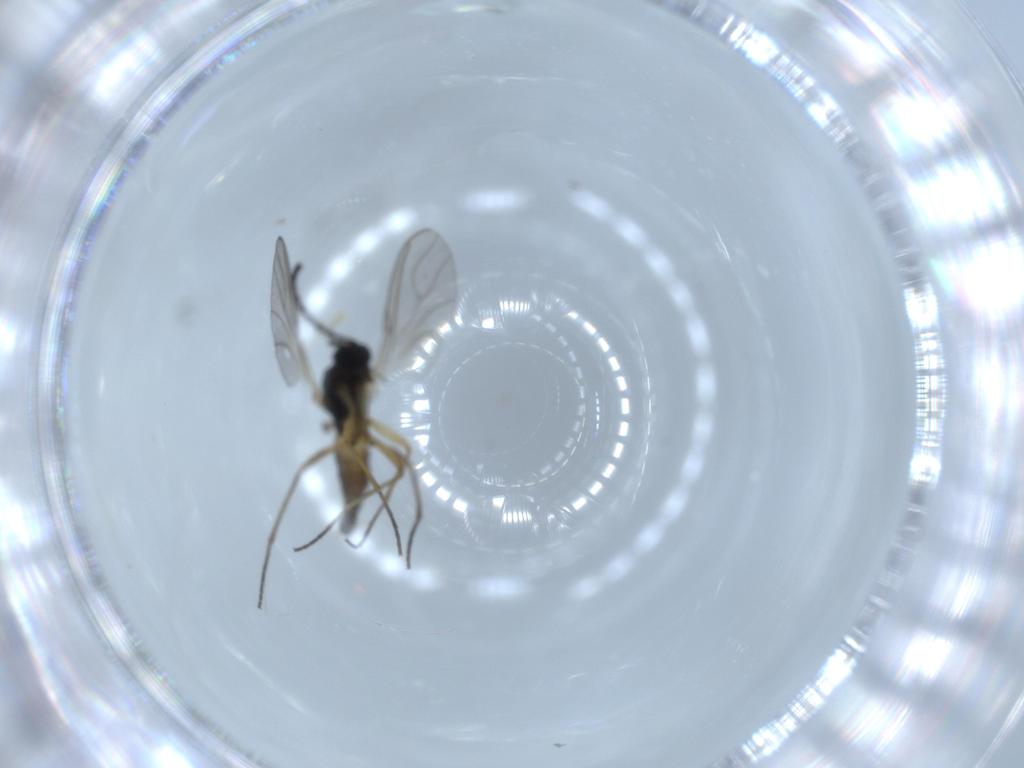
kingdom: Animalia
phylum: Arthropoda
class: Insecta
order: Diptera
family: Sciaridae
